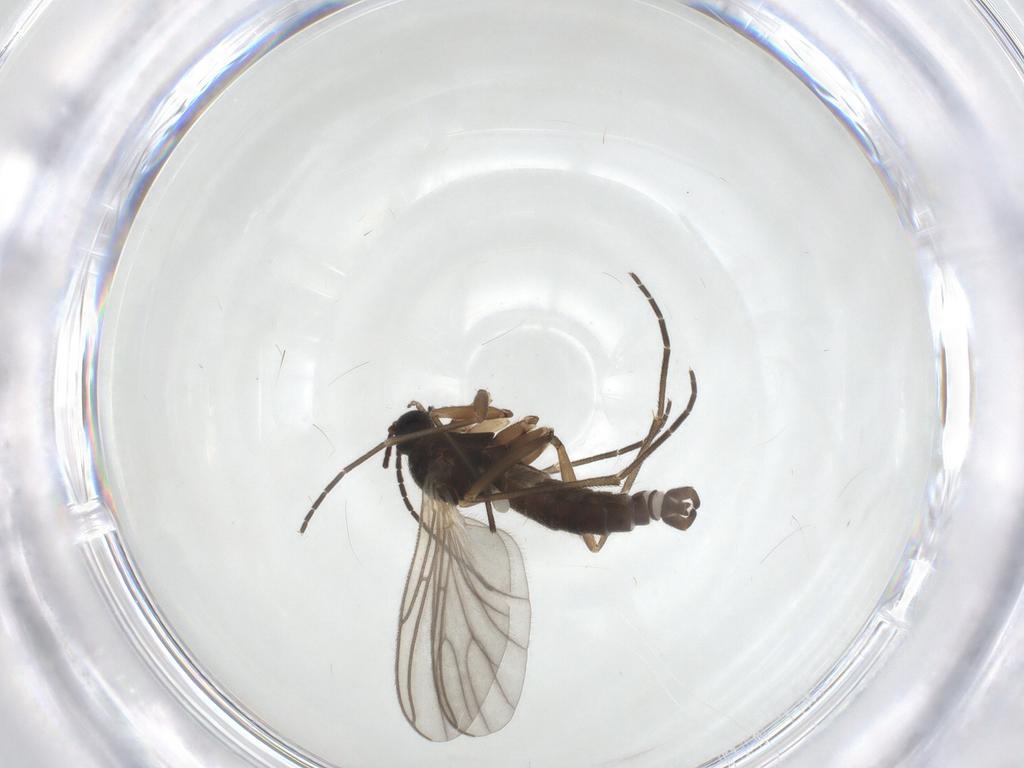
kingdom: Animalia
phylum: Arthropoda
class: Insecta
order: Diptera
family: Sciaridae
